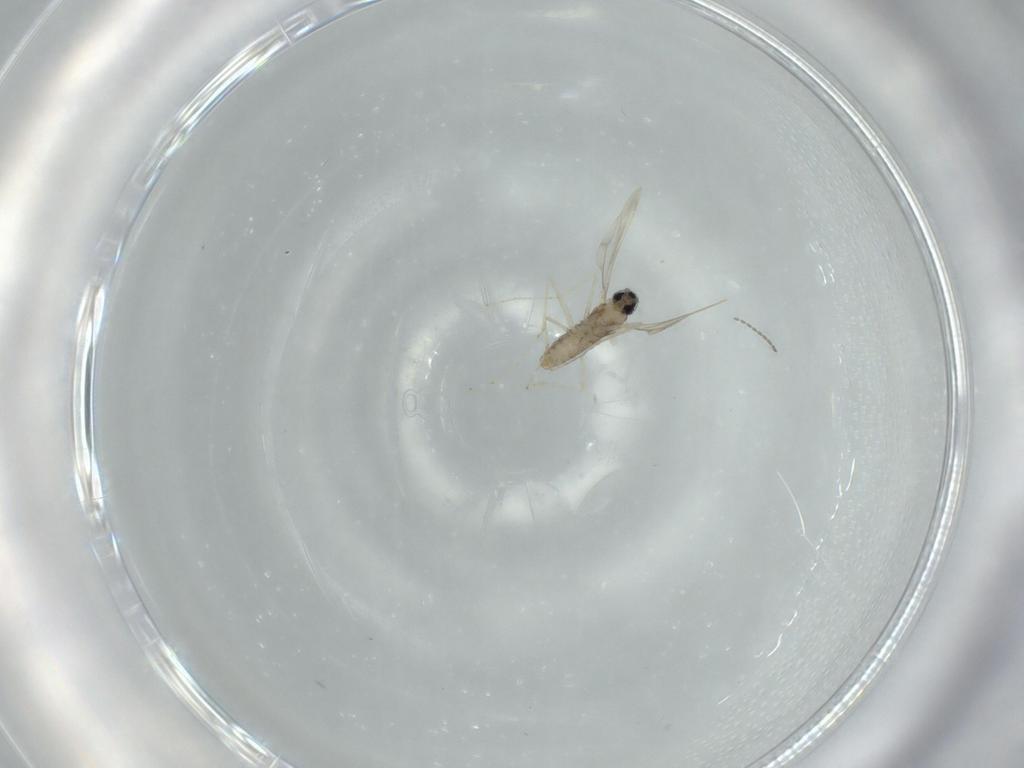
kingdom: Animalia
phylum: Arthropoda
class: Insecta
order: Diptera
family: Cecidomyiidae
